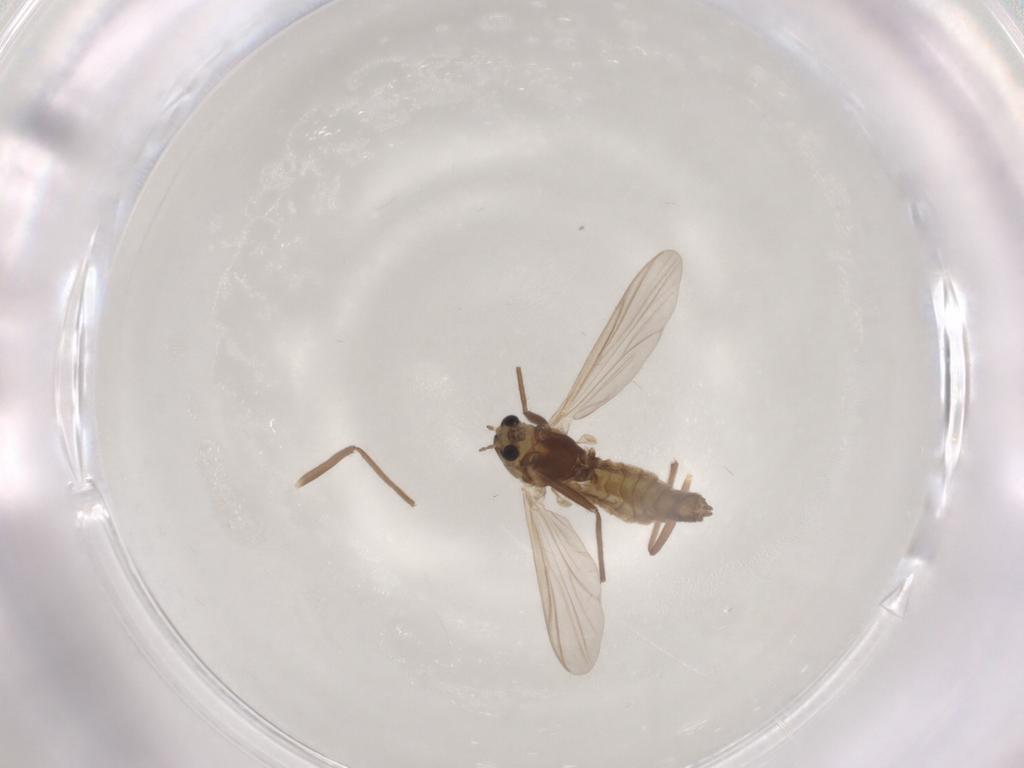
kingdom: Animalia
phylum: Arthropoda
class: Insecta
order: Diptera
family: Chironomidae
